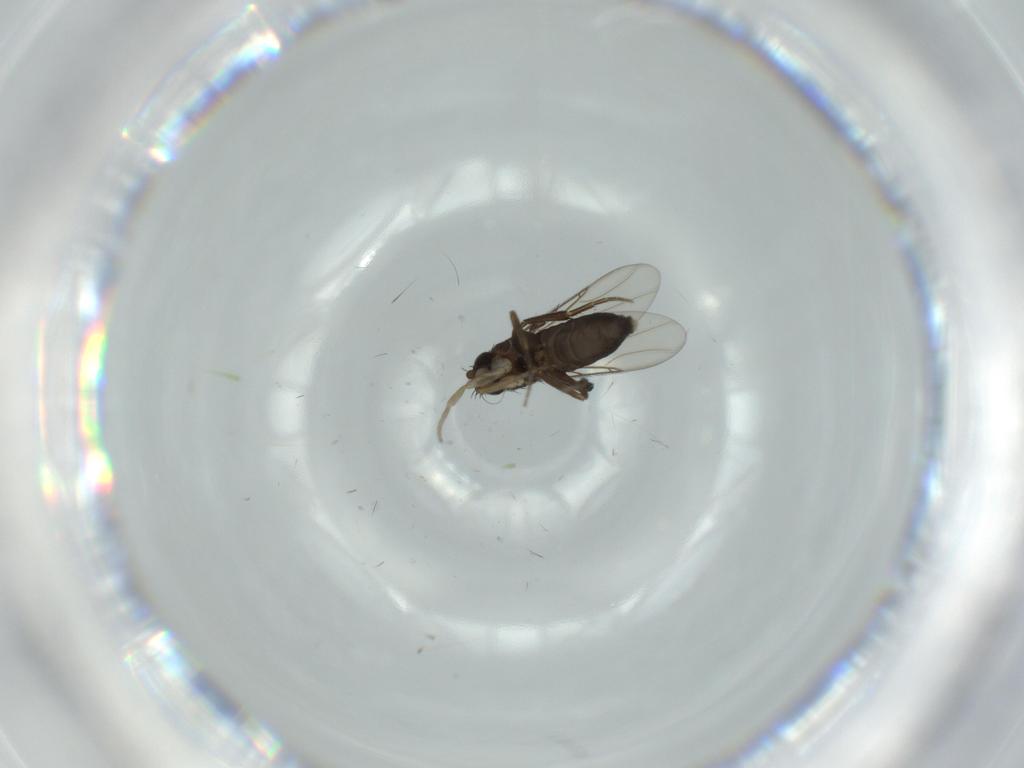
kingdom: Animalia
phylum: Arthropoda
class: Insecta
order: Diptera
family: Phoridae
